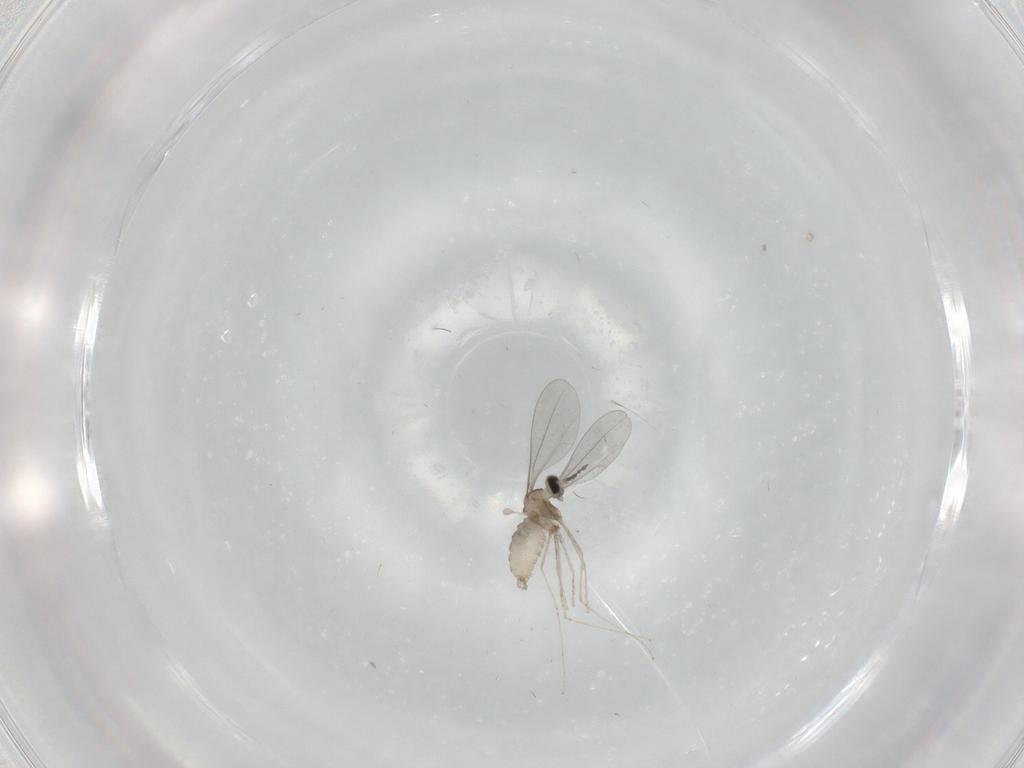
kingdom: Animalia
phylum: Arthropoda
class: Insecta
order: Diptera
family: Cecidomyiidae
